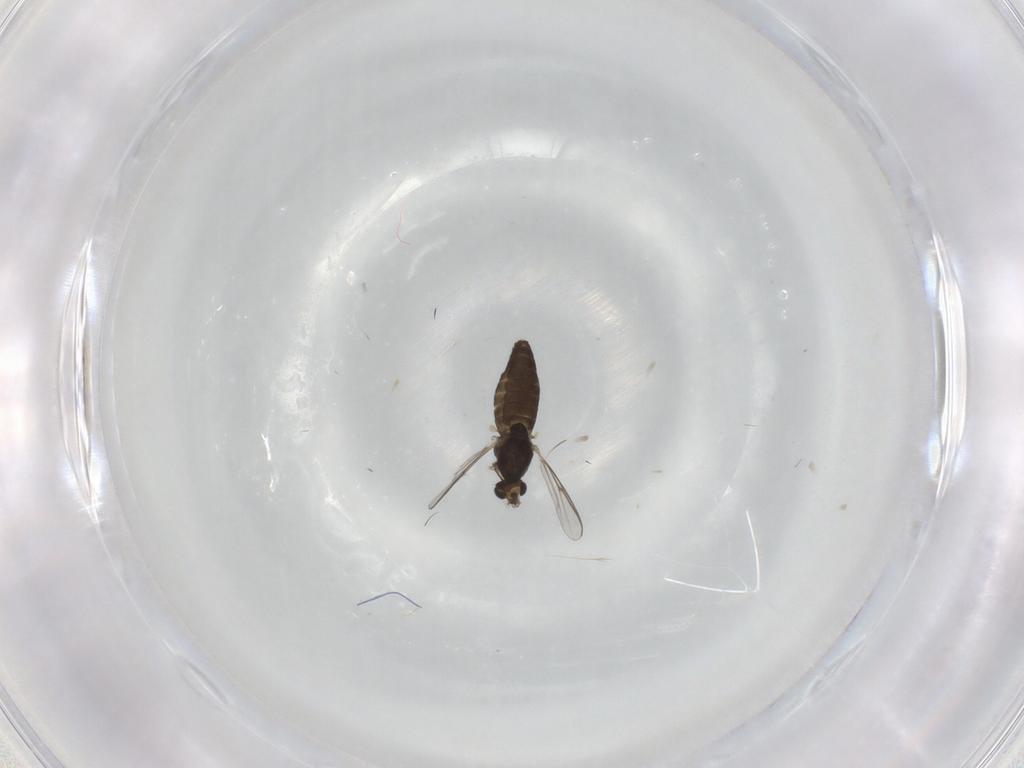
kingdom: Animalia
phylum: Arthropoda
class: Insecta
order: Diptera
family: Chironomidae
